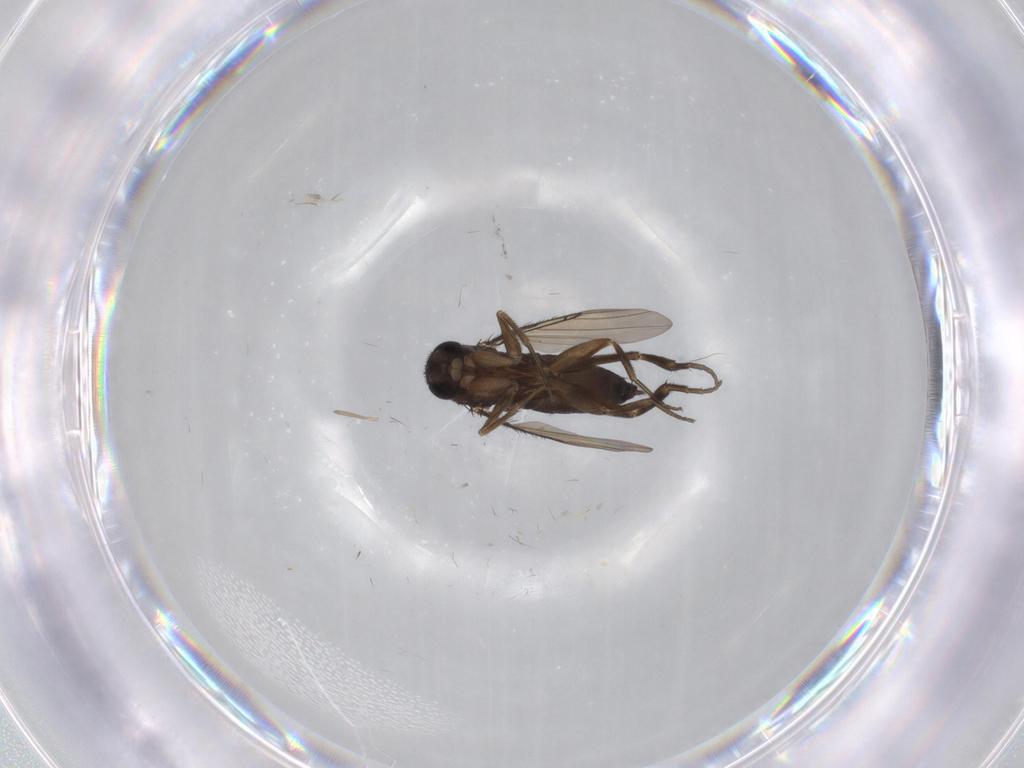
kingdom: Animalia
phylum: Arthropoda
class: Insecta
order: Diptera
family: Phoridae
